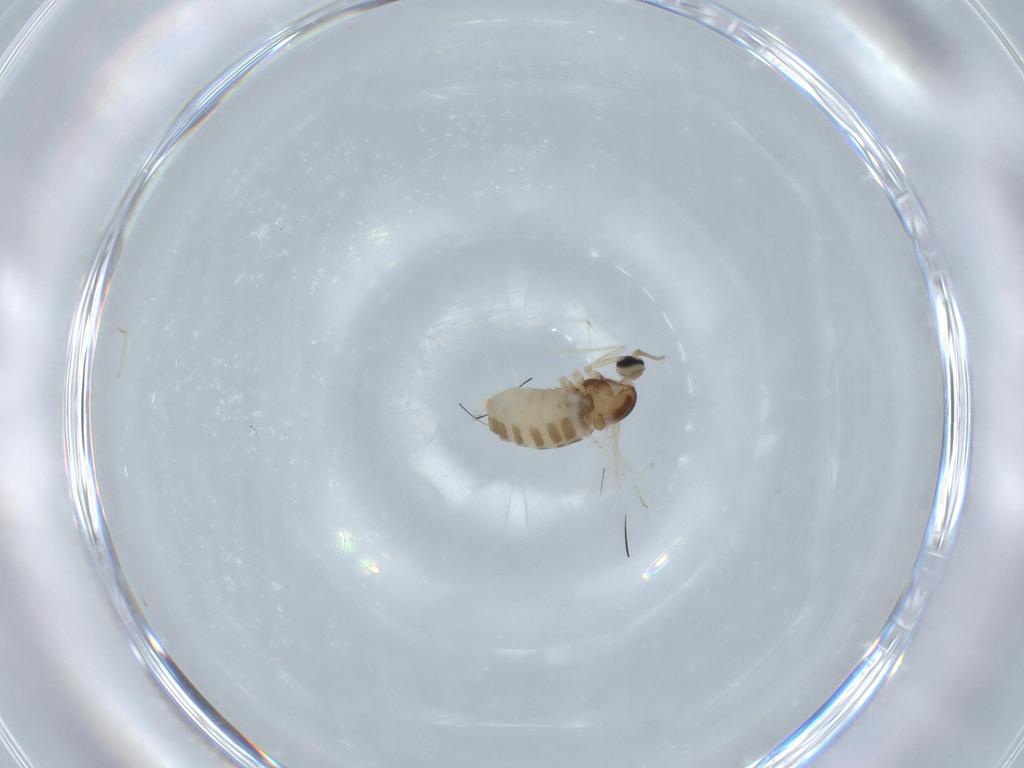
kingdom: Animalia
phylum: Arthropoda
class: Insecta
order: Diptera
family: Cecidomyiidae
